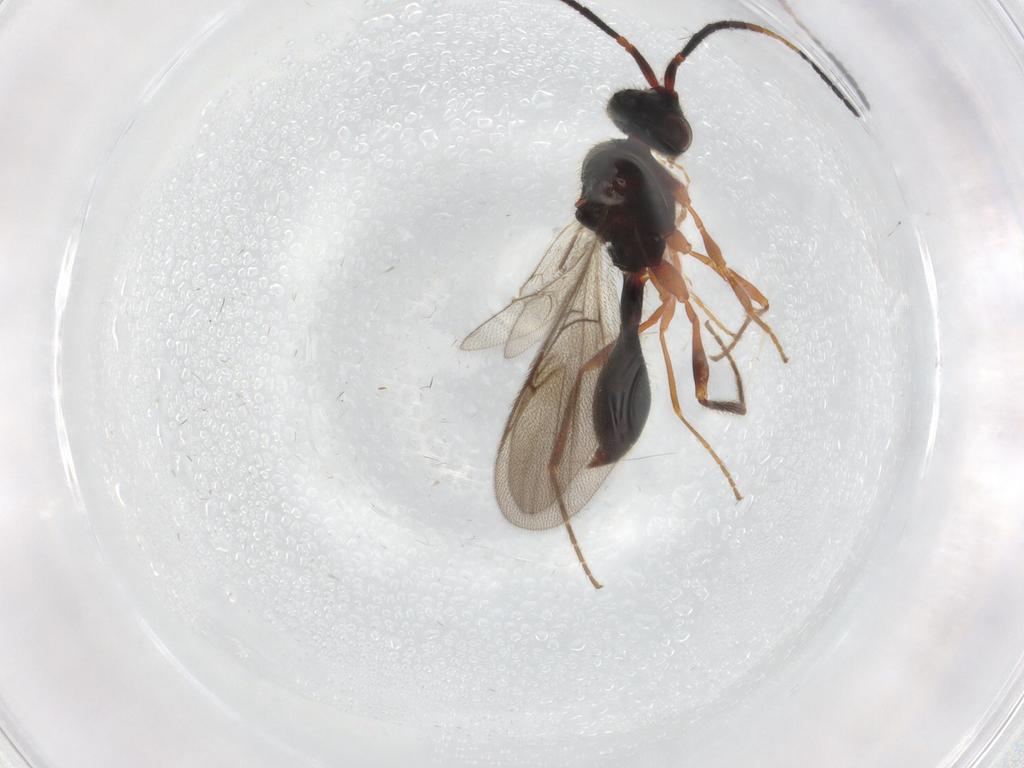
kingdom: Animalia
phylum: Arthropoda
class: Insecta
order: Hymenoptera
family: Diapriidae
